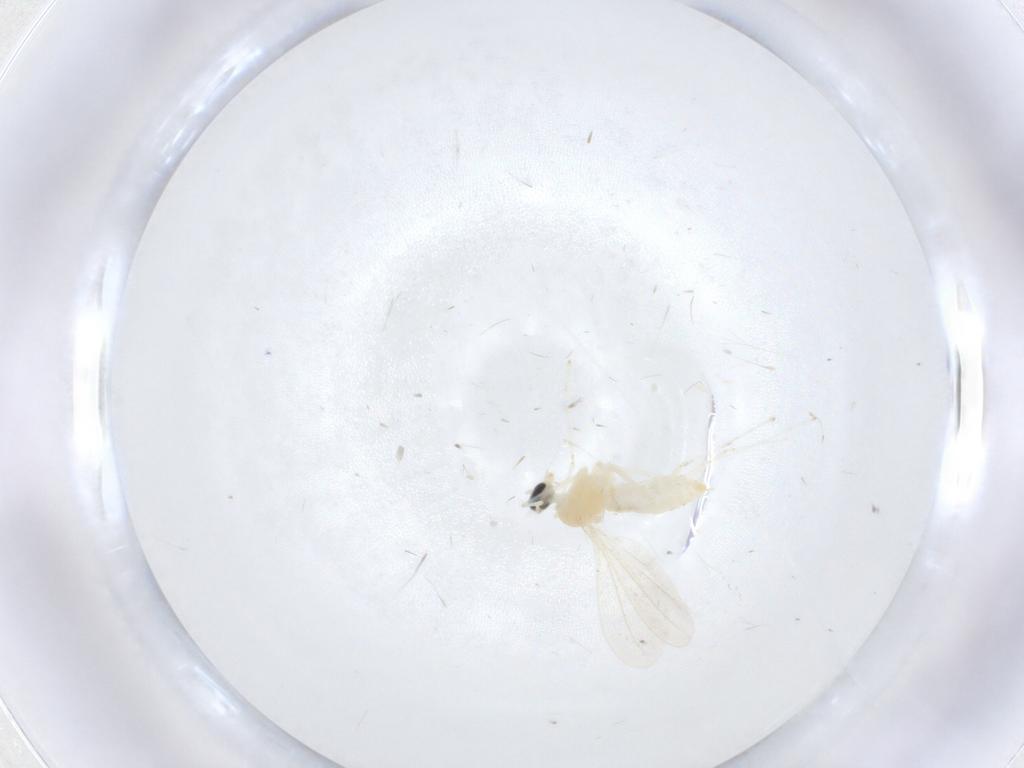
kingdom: Animalia
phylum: Arthropoda
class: Insecta
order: Diptera
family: Cecidomyiidae
